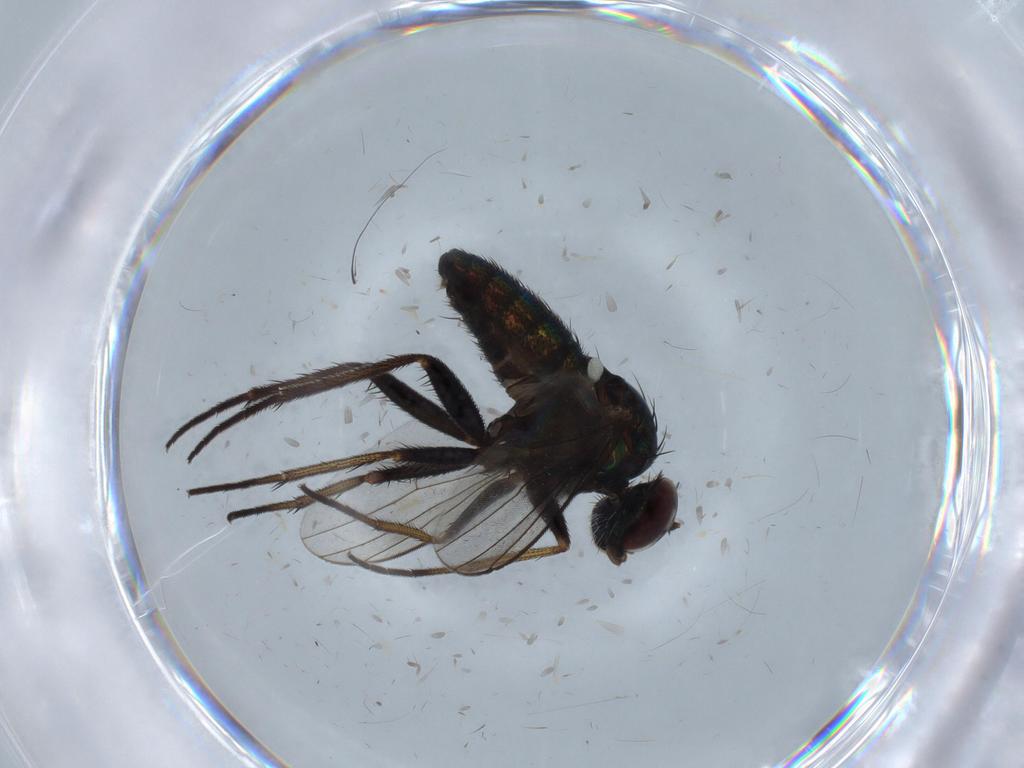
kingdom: Animalia
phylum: Arthropoda
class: Insecta
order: Diptera
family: Dolichopodidae
